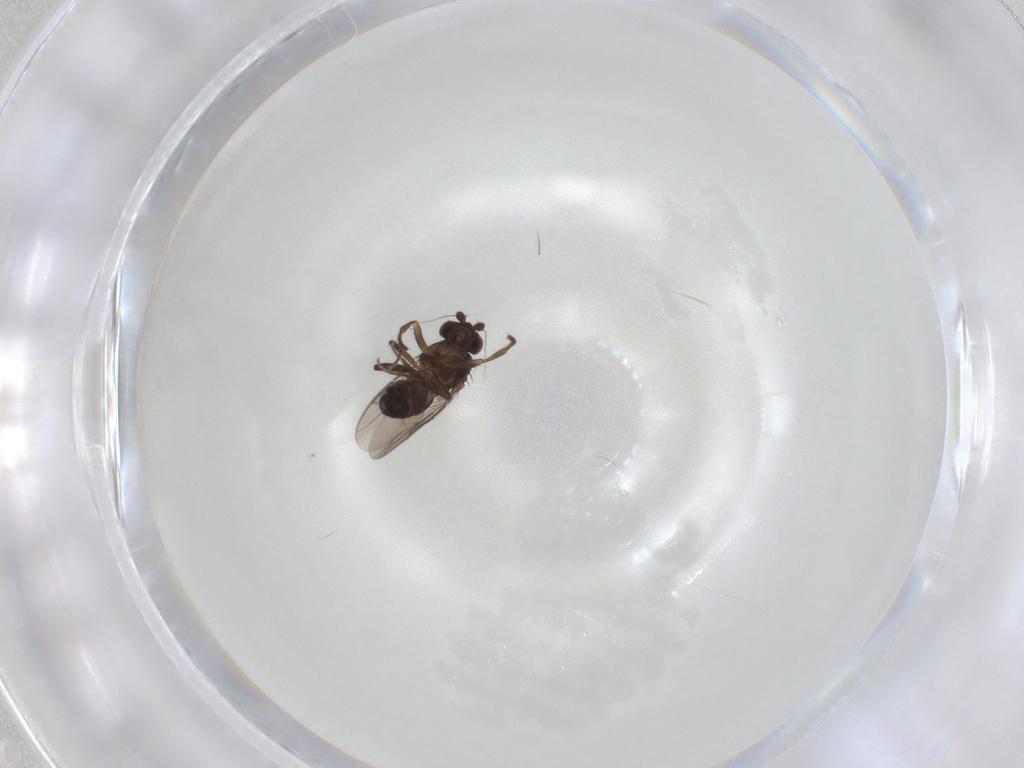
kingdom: Animalia
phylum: Arthropoda
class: Insecta
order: Diptera
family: Sphaeroceridae
